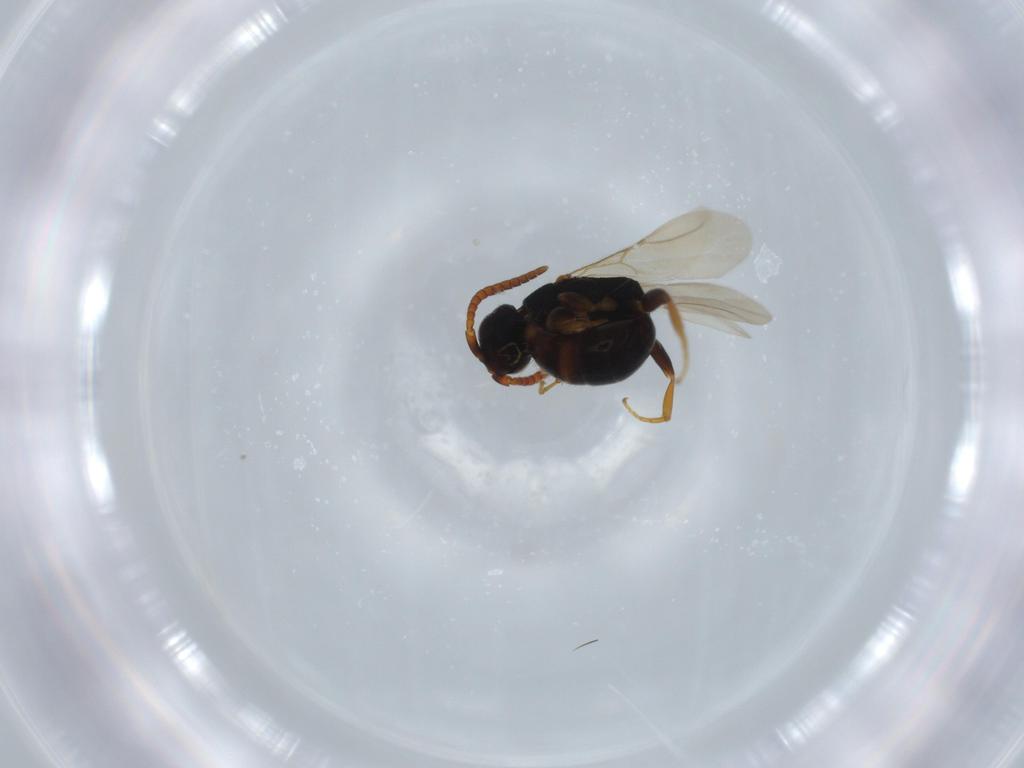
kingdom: Animalia
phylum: Arthropoda
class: Insecta
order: Hymenoptera
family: Bethylidae
